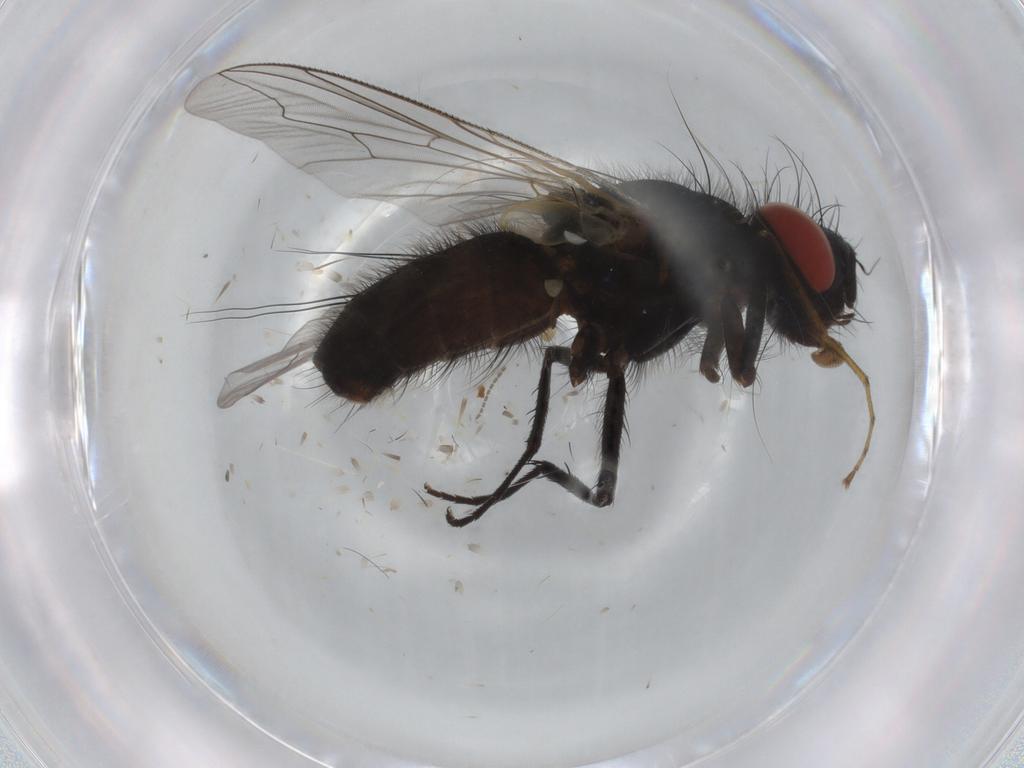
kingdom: Animalia
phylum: Arthropoda
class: Insecta
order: Diptera
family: Sarcophagidae
